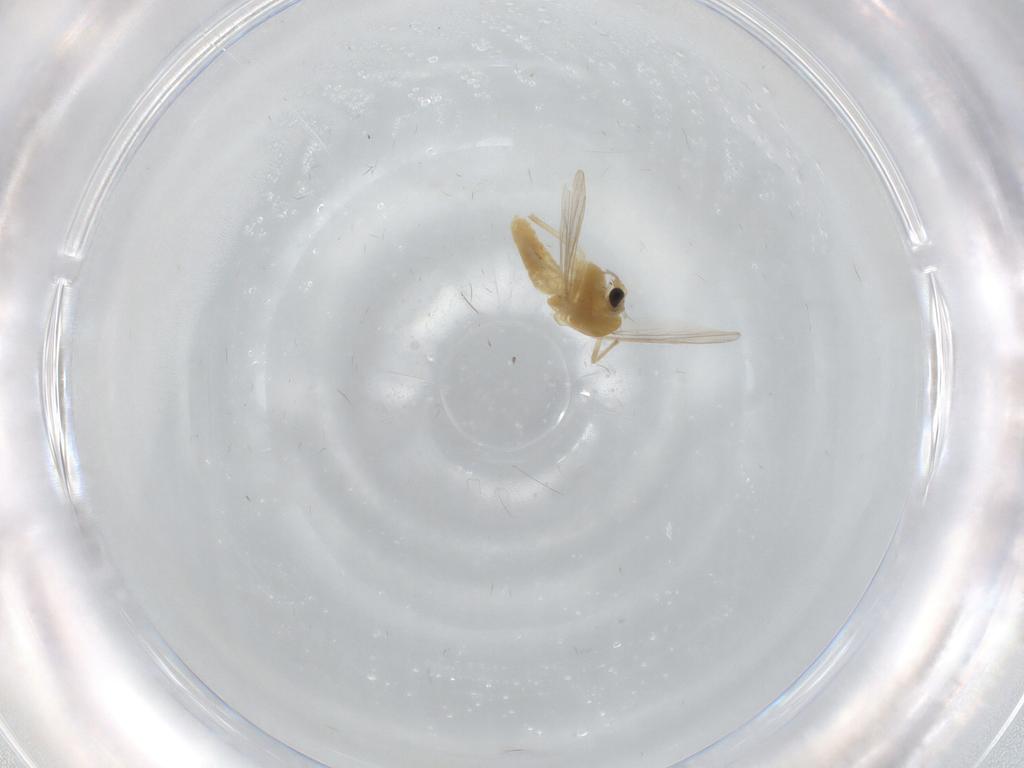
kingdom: Animalia
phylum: Arthropoda
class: Insecta
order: Diptera
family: Chironomidae
